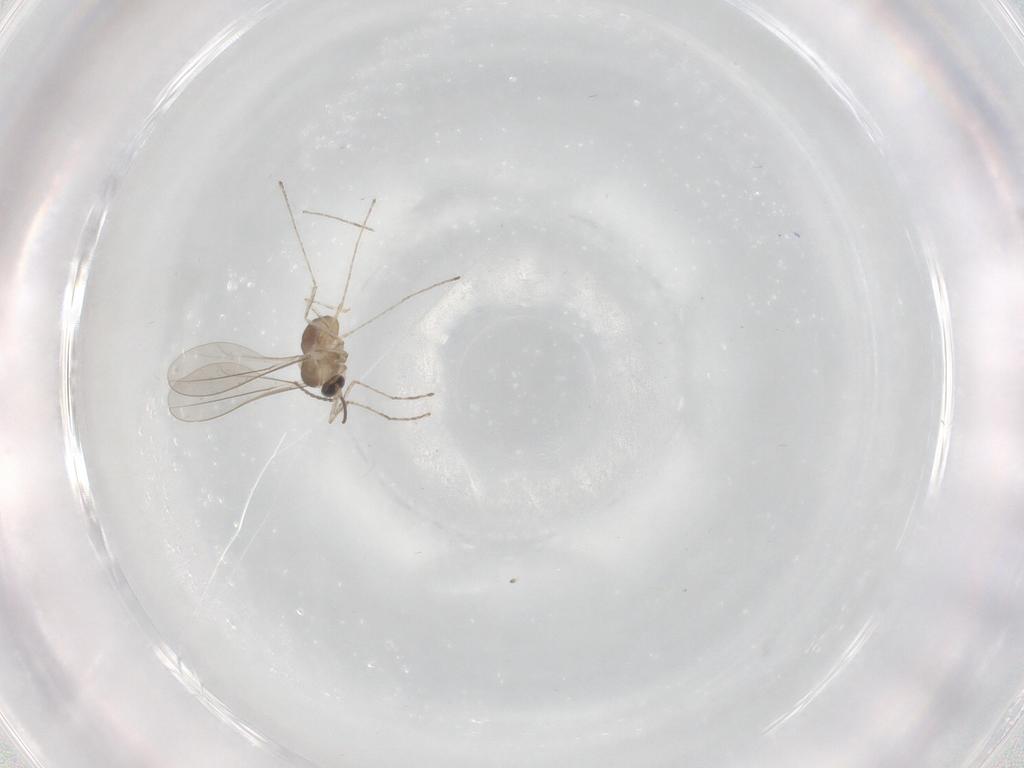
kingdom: Animalia
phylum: Arthropoda
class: Insecta
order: Diptera
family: Cecidomyiidae
